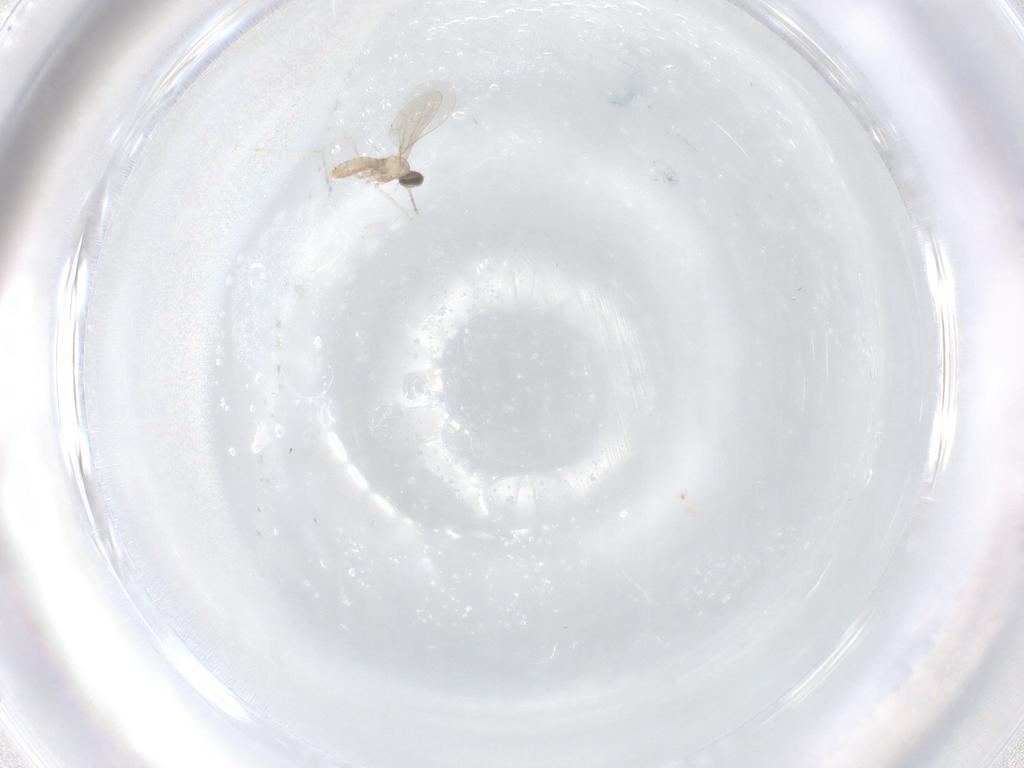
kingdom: Animalia
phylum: Arthropoda
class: Insecta
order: Diptera
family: Cecidomyiidae
